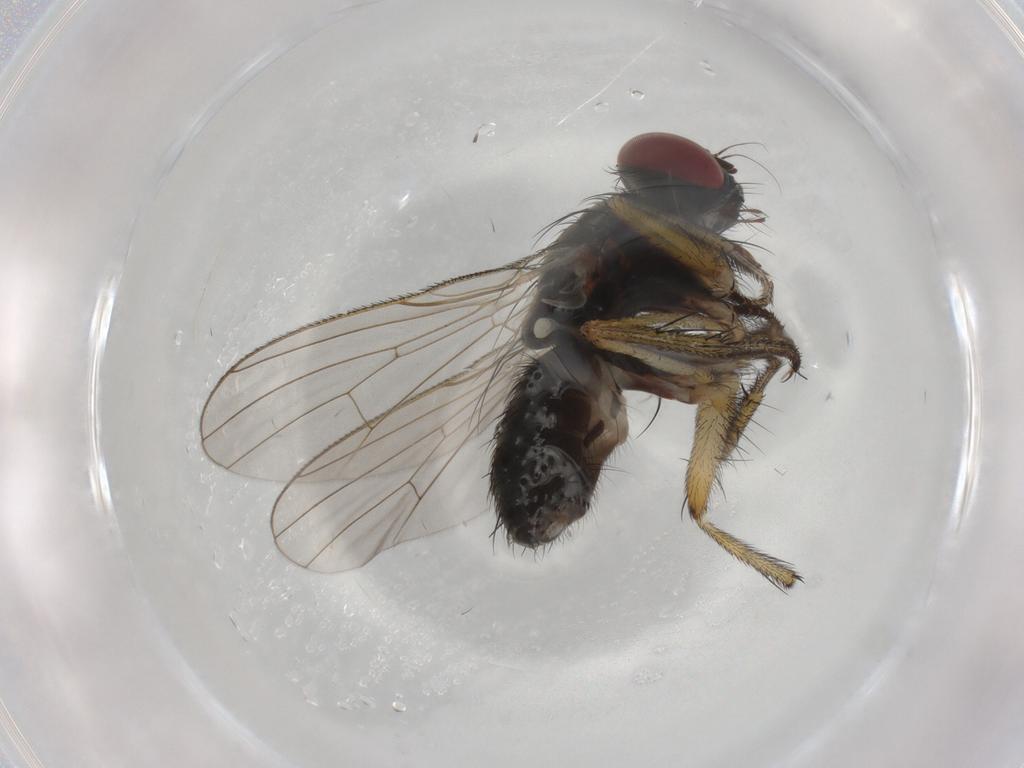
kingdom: Animalia
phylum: Arthropoda
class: Insecta
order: Diptera
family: Muscidae
